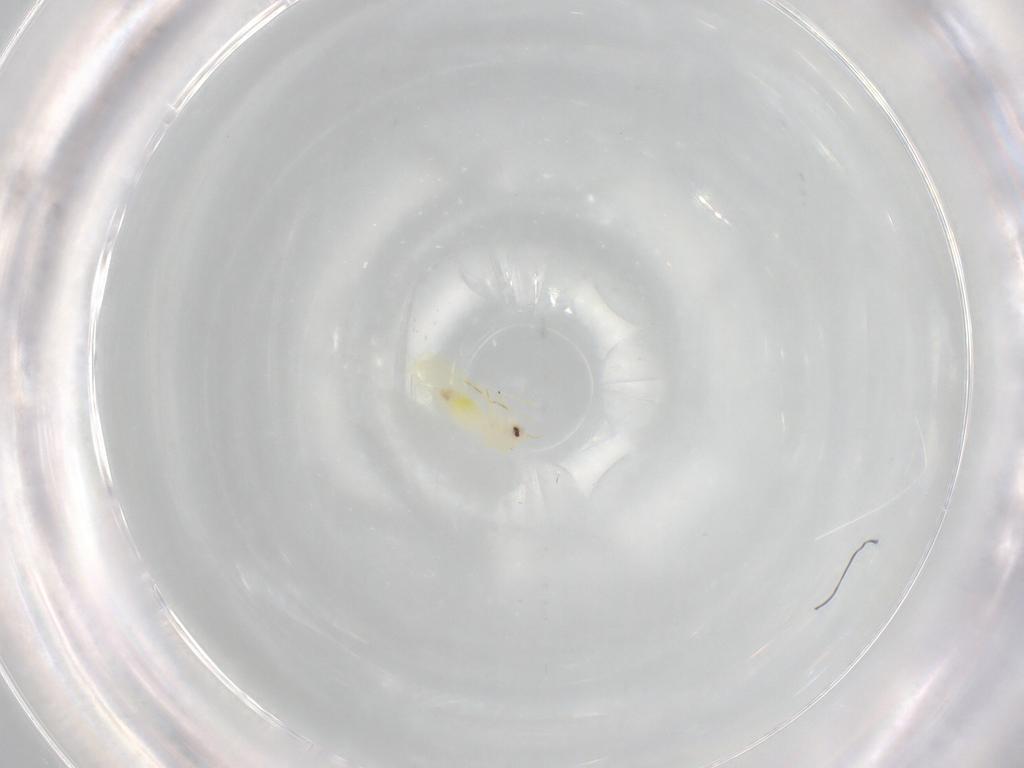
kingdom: Animalia
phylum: Arthropoda
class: Insecta
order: Hemiptera
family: Aleyrodidae
